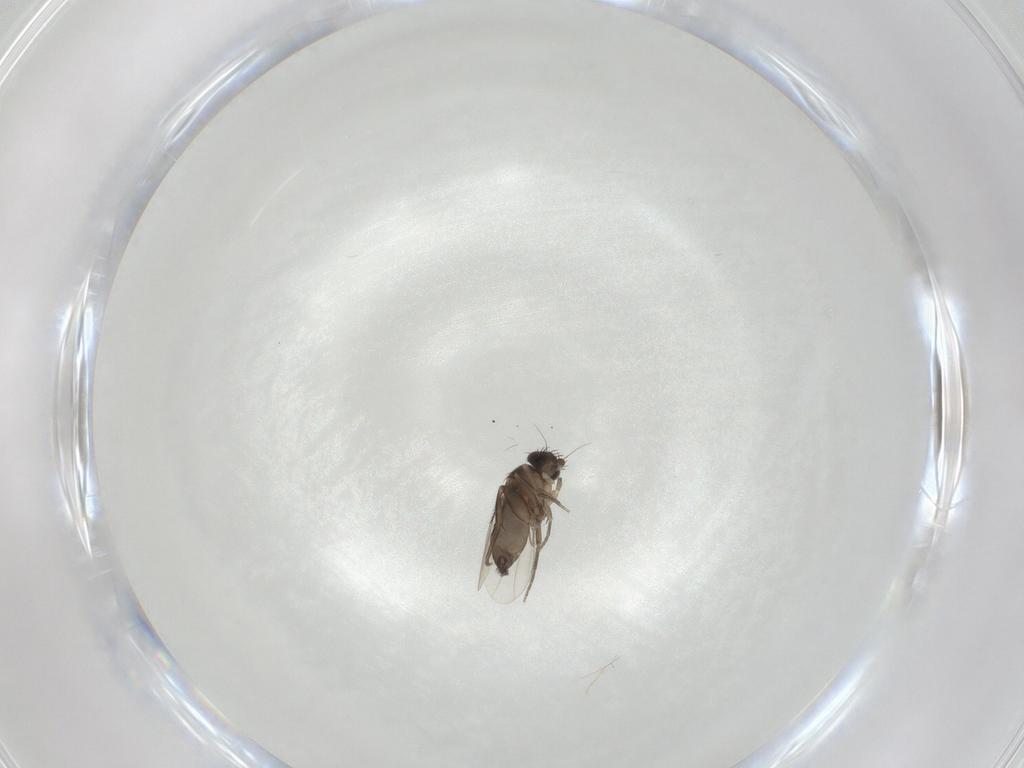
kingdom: Animalia
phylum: Arthropoda
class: Insecta
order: Diptera
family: Phoridae
